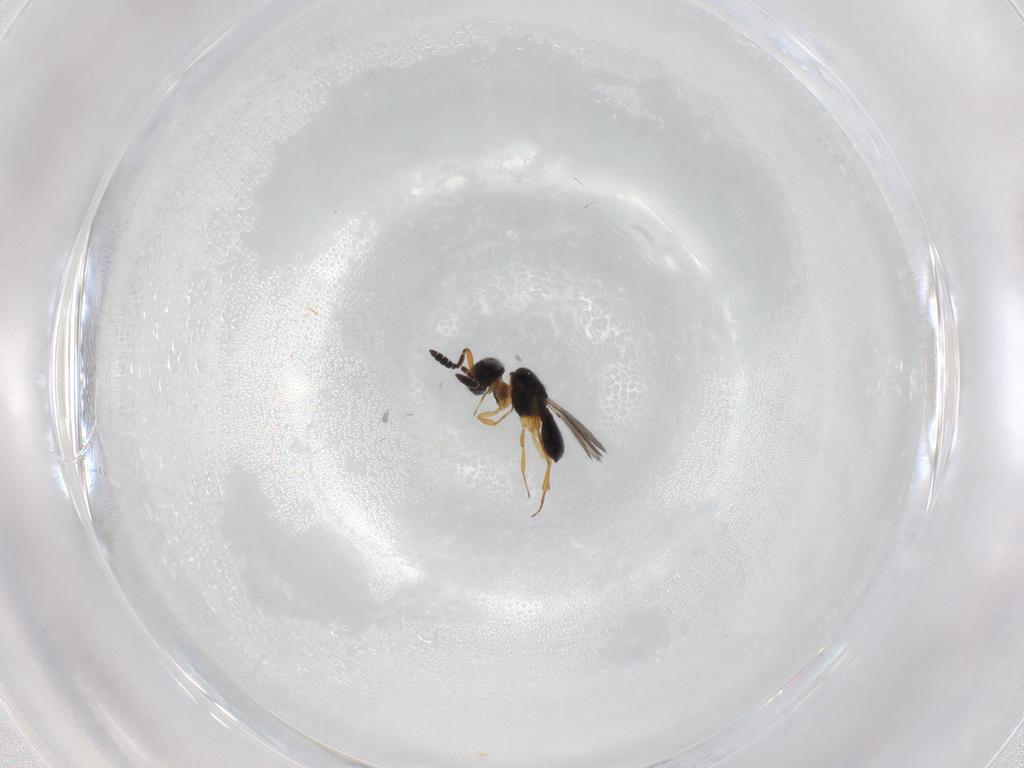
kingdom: Animalia
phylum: Arthropoda
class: Insecta
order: Hymenoptera
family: Scelionidae
